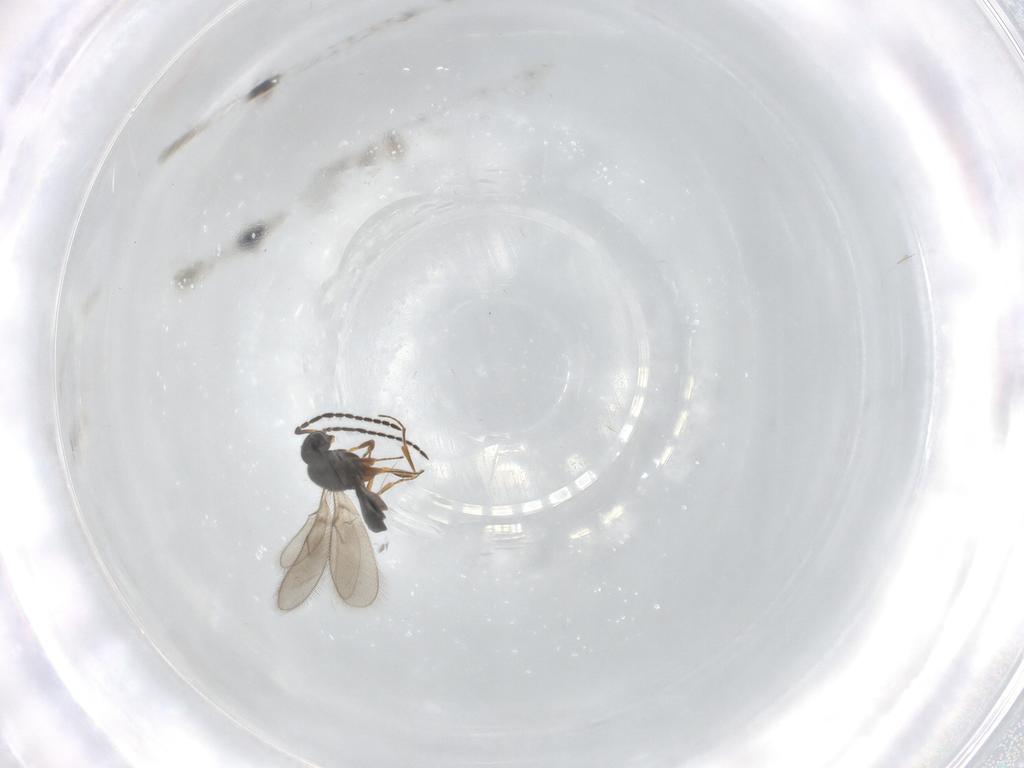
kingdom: Animalia
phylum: Arthropoda
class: Insecta
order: Hymenoptera
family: Scelionidae
